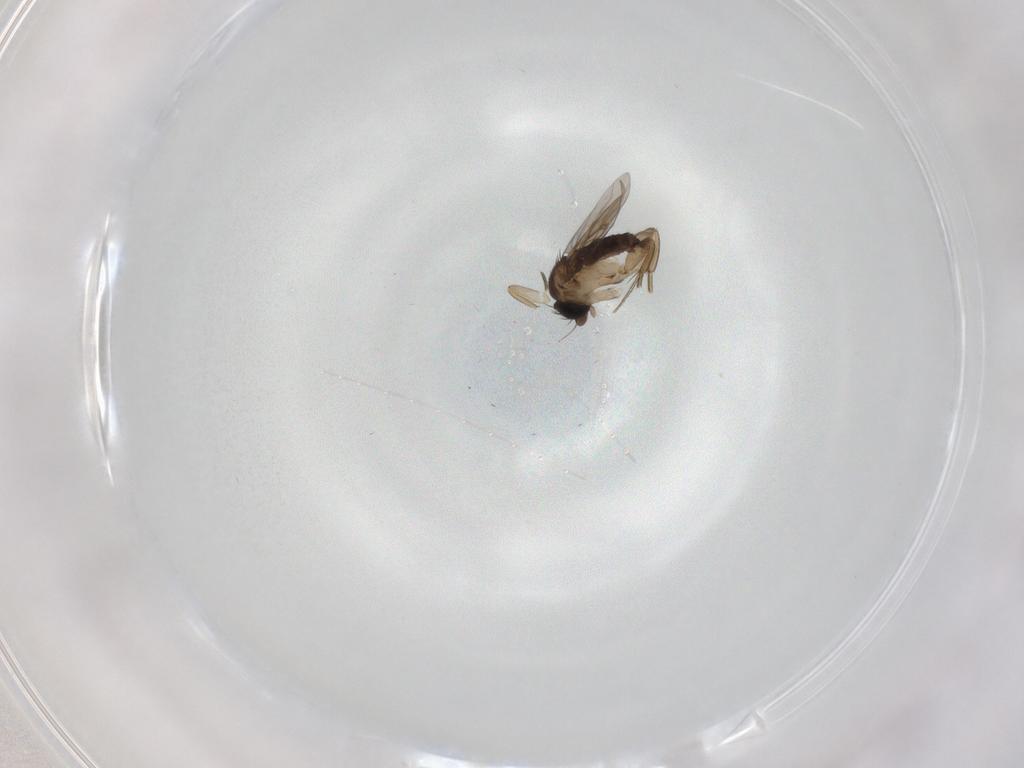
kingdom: Animalia
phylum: Arthropoda
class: Insecta
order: Diptera
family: Phoridae
